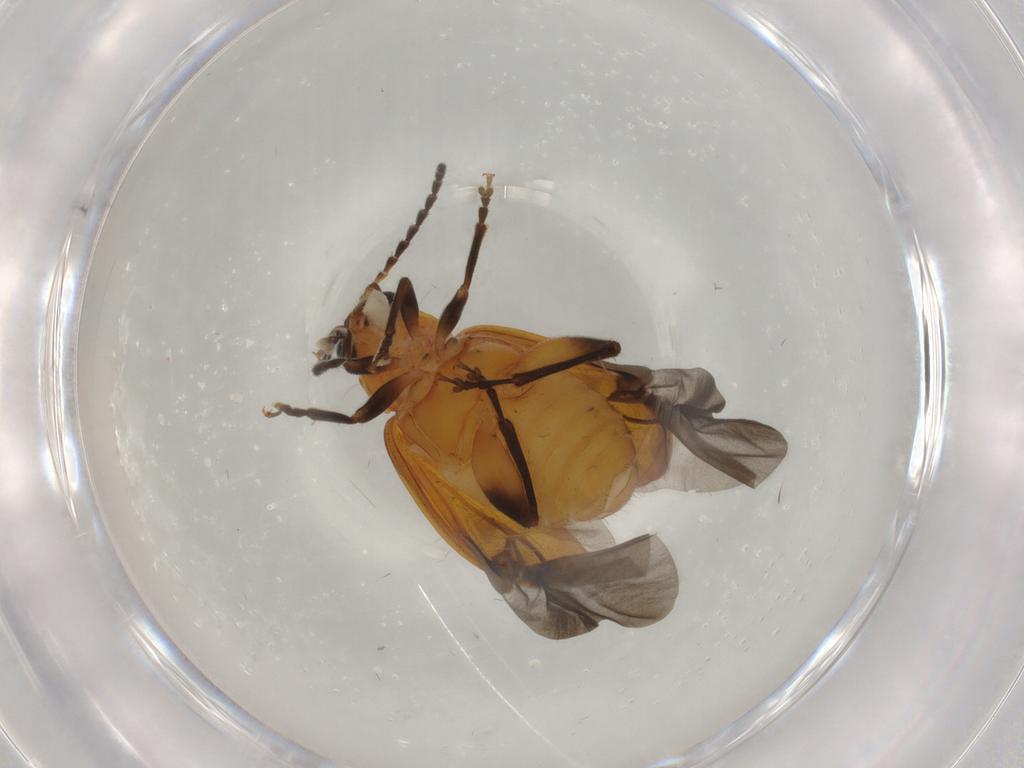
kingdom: Animalia
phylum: Arthropoda
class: Insecta
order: Coleoptera
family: Chrysomelidae
